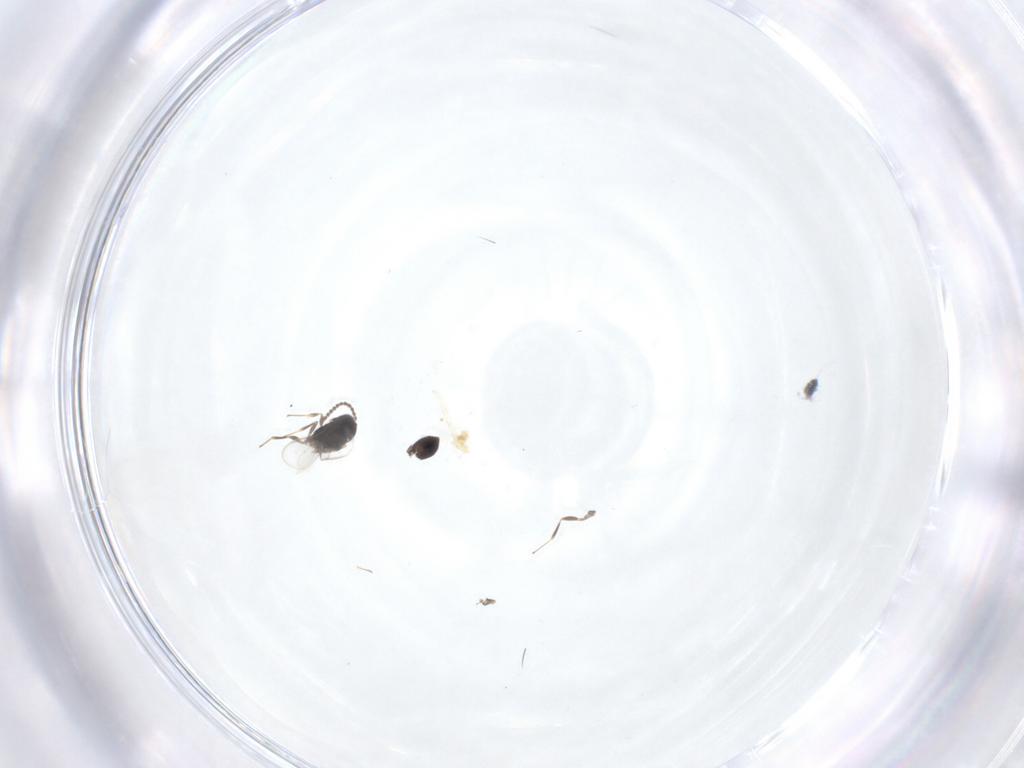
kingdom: Animalia
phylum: Arthropoda
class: Insecta
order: Hymenoptera
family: Scelionidae
